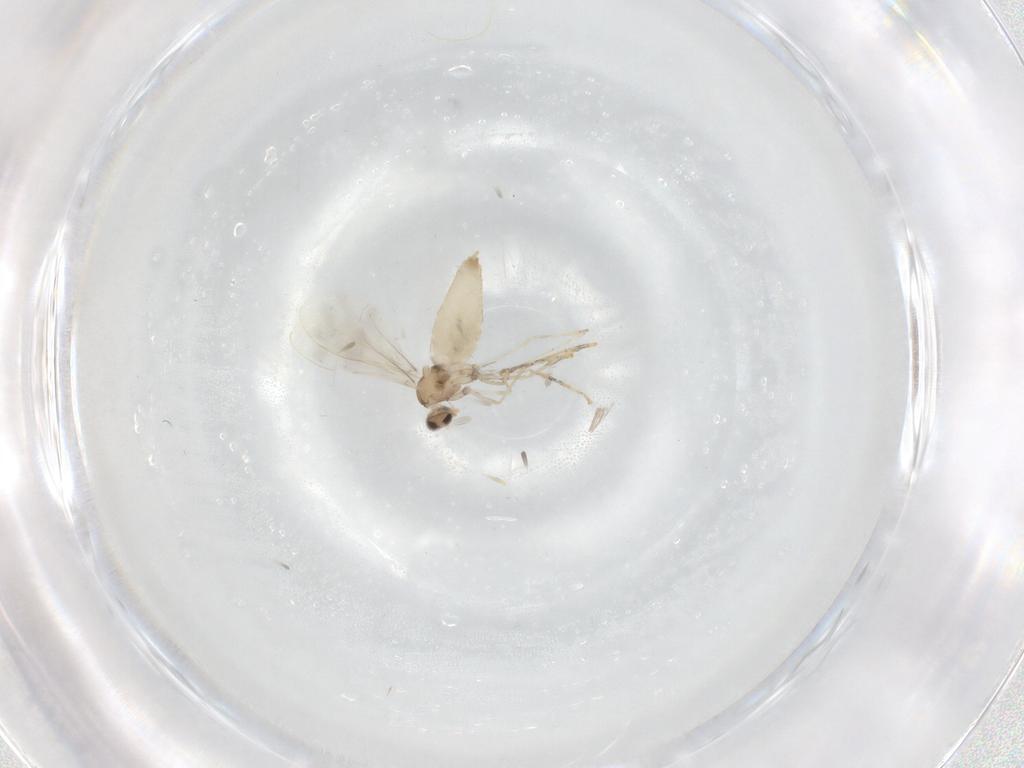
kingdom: Animalia
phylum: Arthropoda
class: Insecta
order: Diptera
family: Cecidomyiidae
